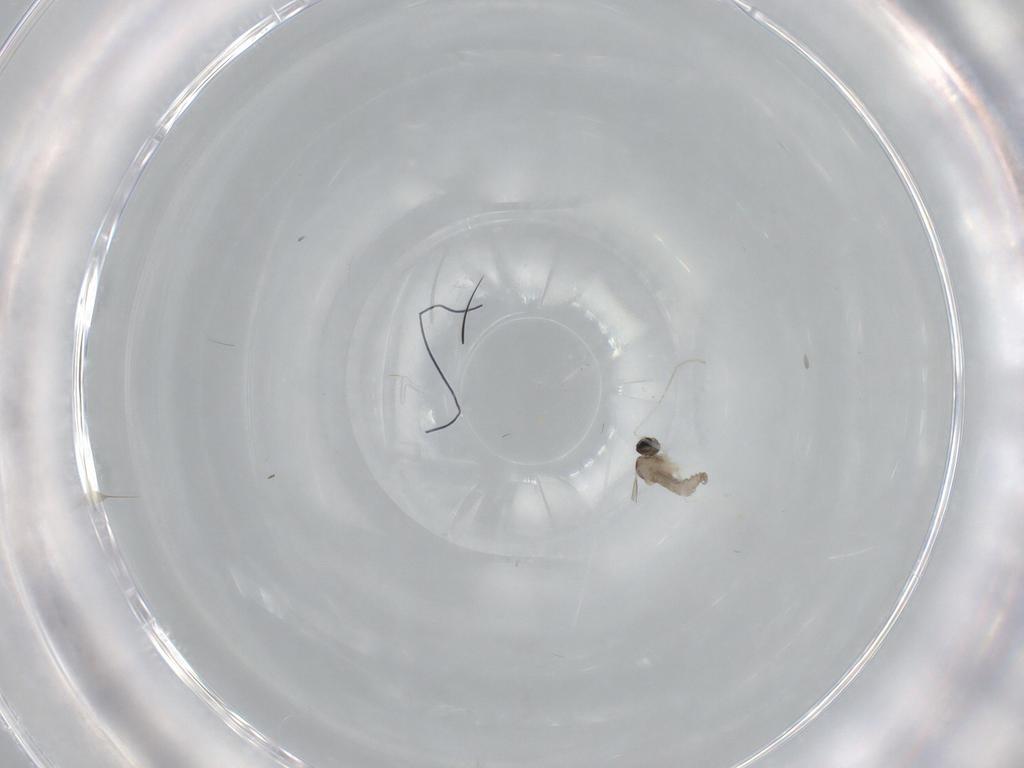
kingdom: Animalia
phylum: Arthropoda
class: Insecta
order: Diptera
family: Cecidomyiidae
